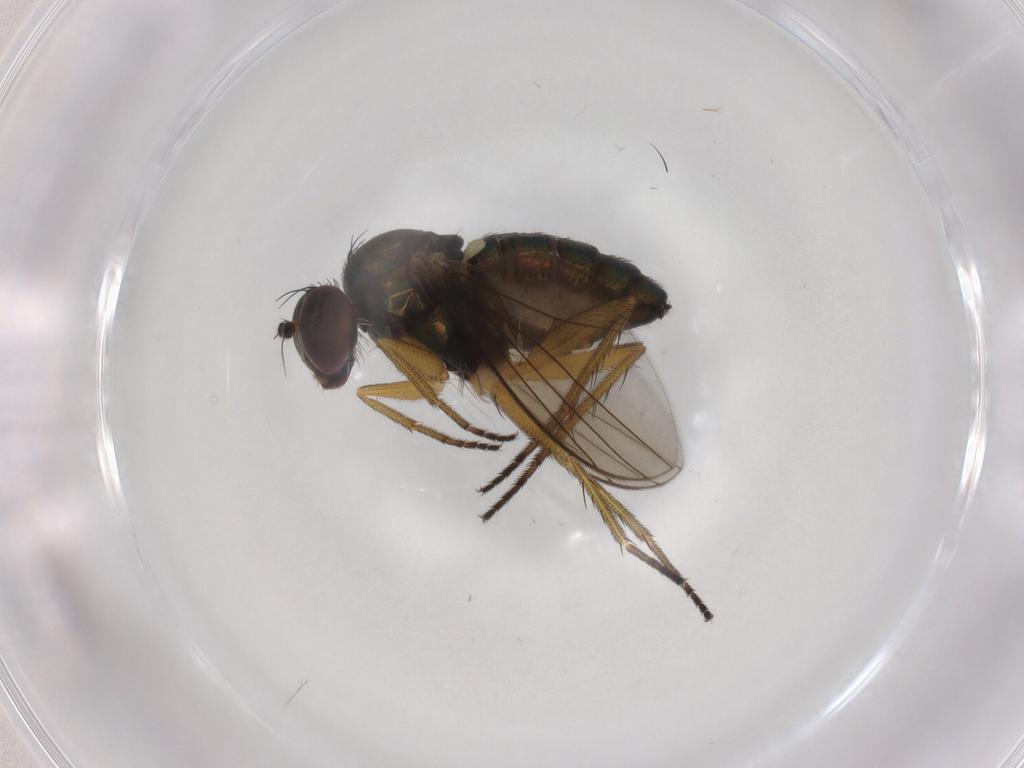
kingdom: Animalia
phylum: Arthropoda
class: Insecta
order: Diptera
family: Dolichopodidae
